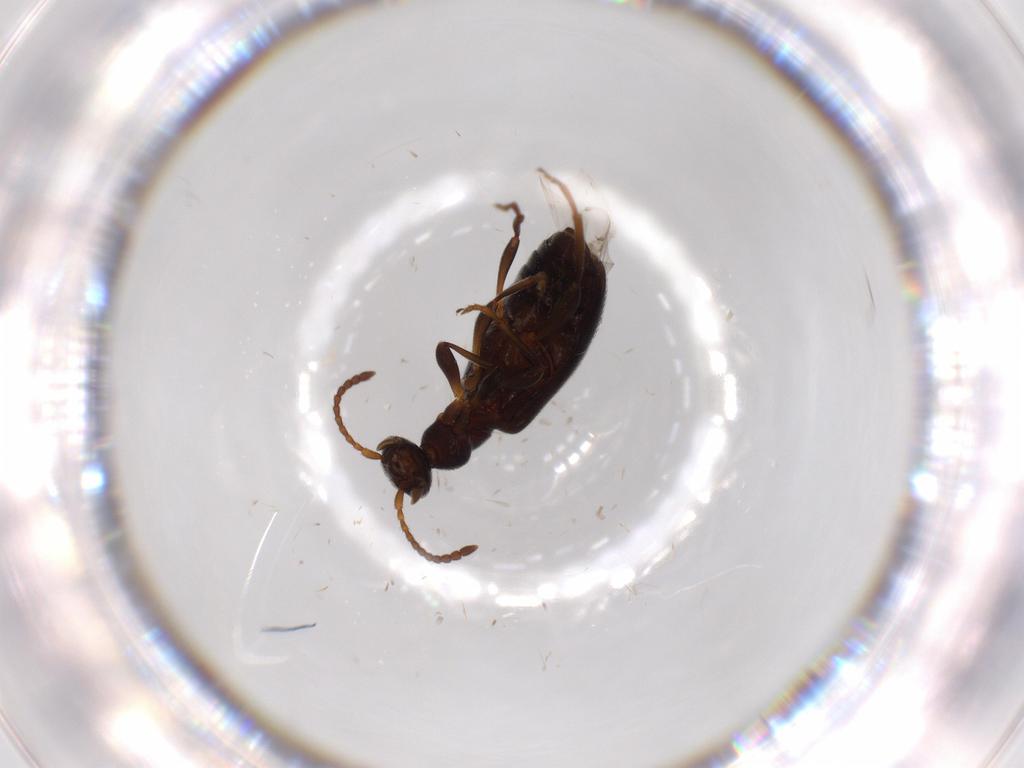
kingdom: Animalia
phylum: Arthropoda
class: Insecta
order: Coleoptera
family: Anthicidae
